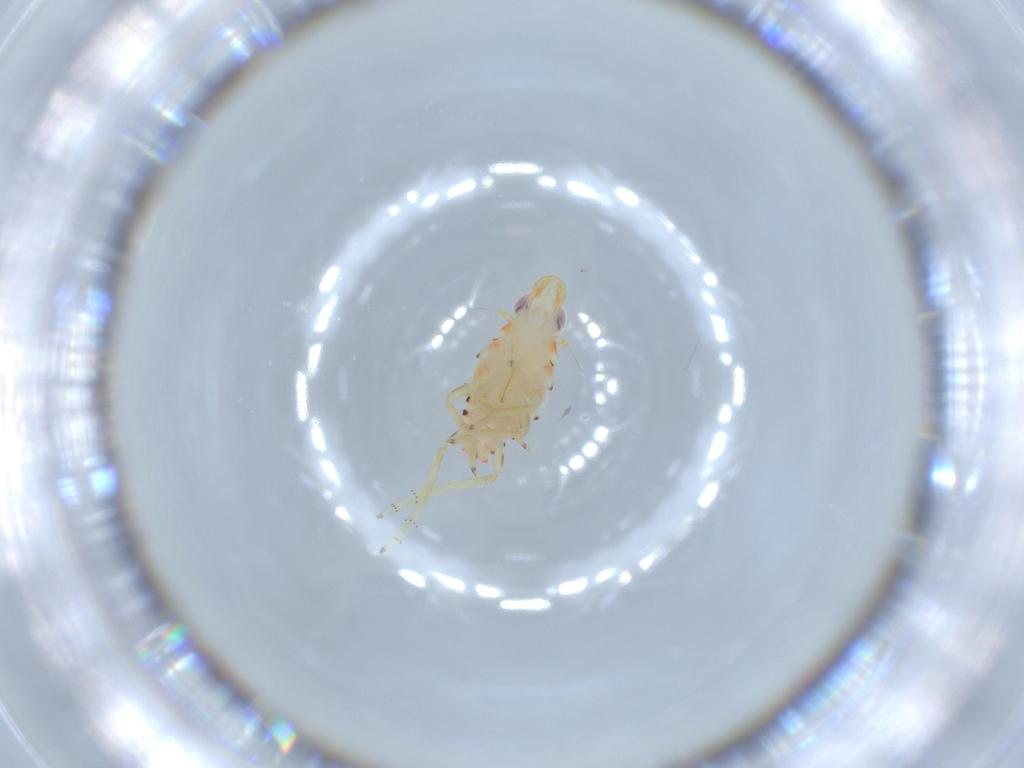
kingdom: Animalia
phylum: Arthropoda
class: Insecta
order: Hemiptera
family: Tropiduchidae
